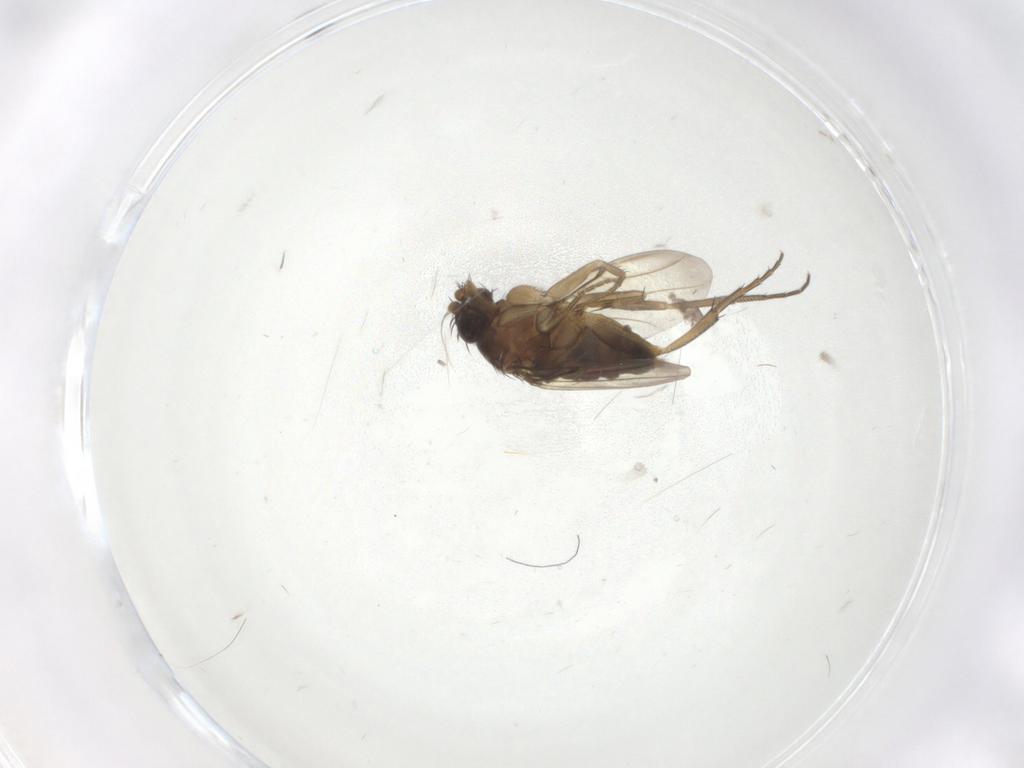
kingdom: Animalia
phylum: Arthropoda
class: Insecta
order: Diptera
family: Phoridae
